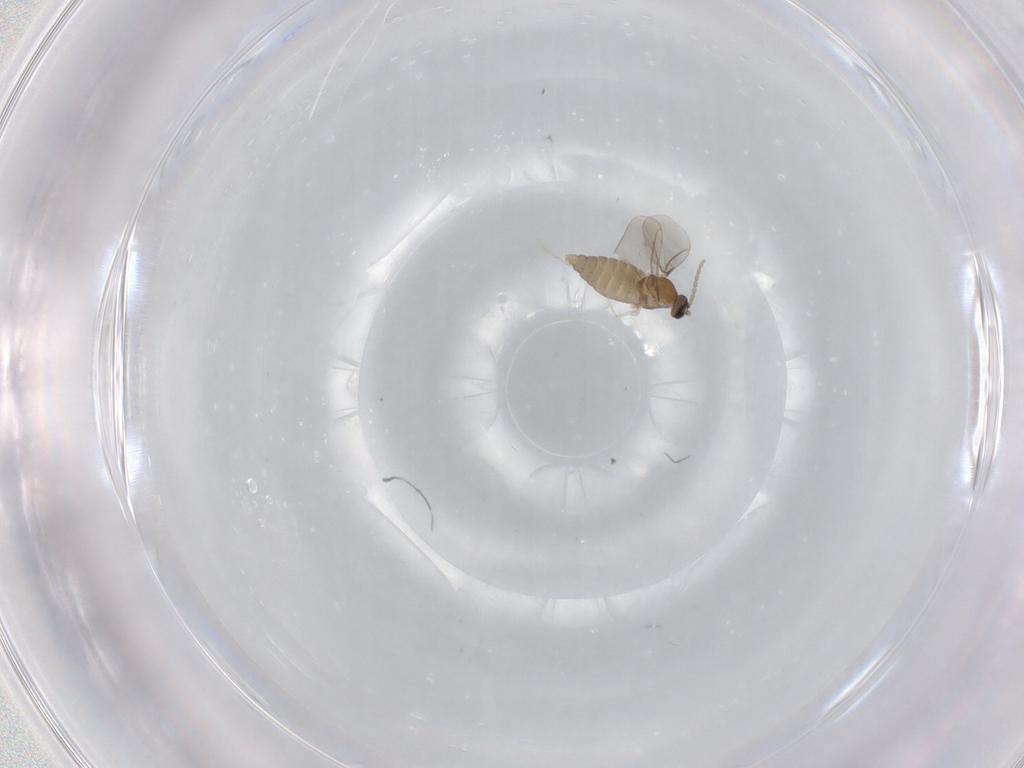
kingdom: Animalia
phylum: Arthropoda
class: Insecta
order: Diptera
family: Cecidomyiidae
